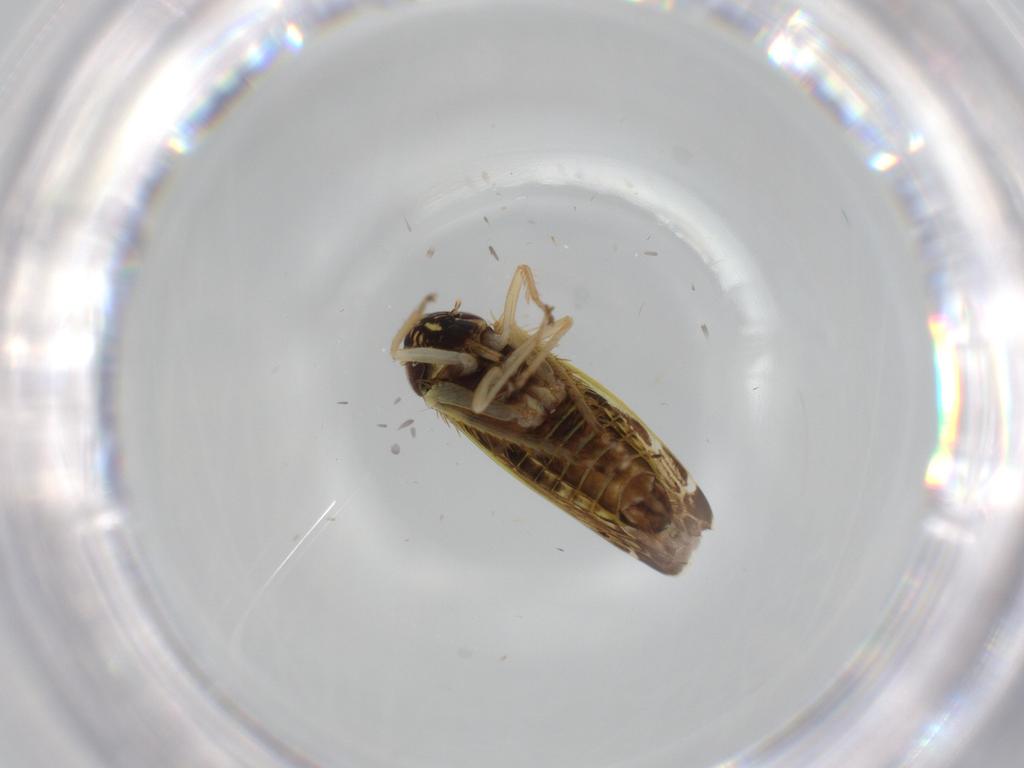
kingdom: Animalia
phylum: Arthropoda
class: Insecta
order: Hemiptera
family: Cicadellidae
